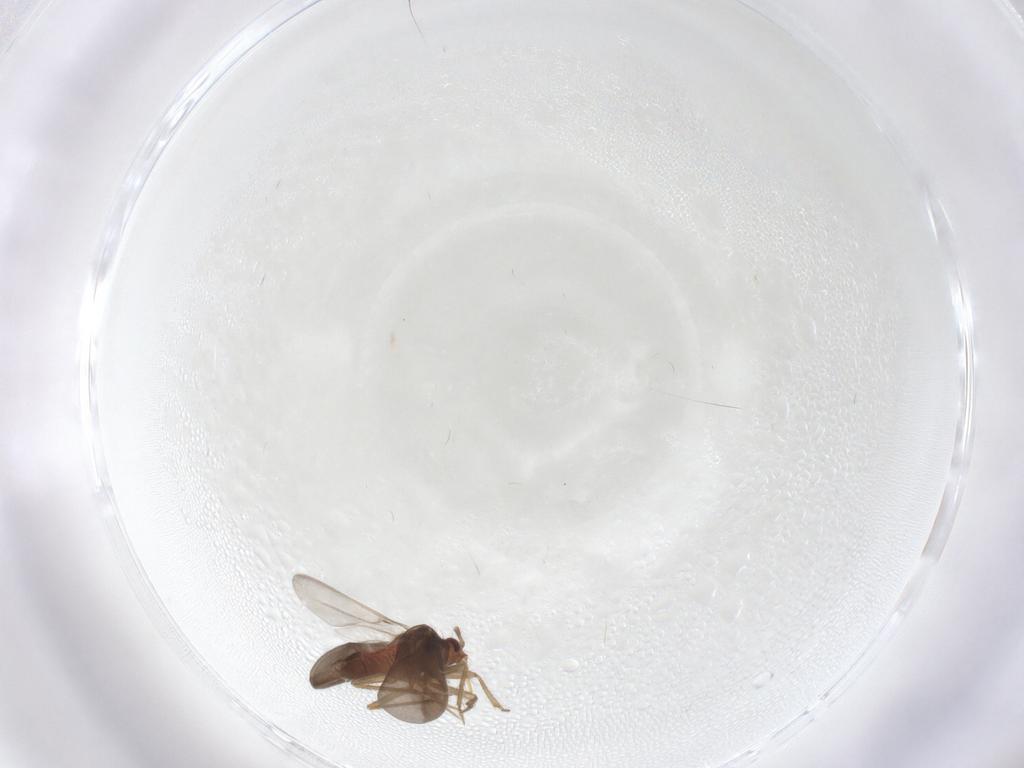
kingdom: Animalia
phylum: Arthropoda
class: Insecta
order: Hemiptera
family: Ceratocombidae
